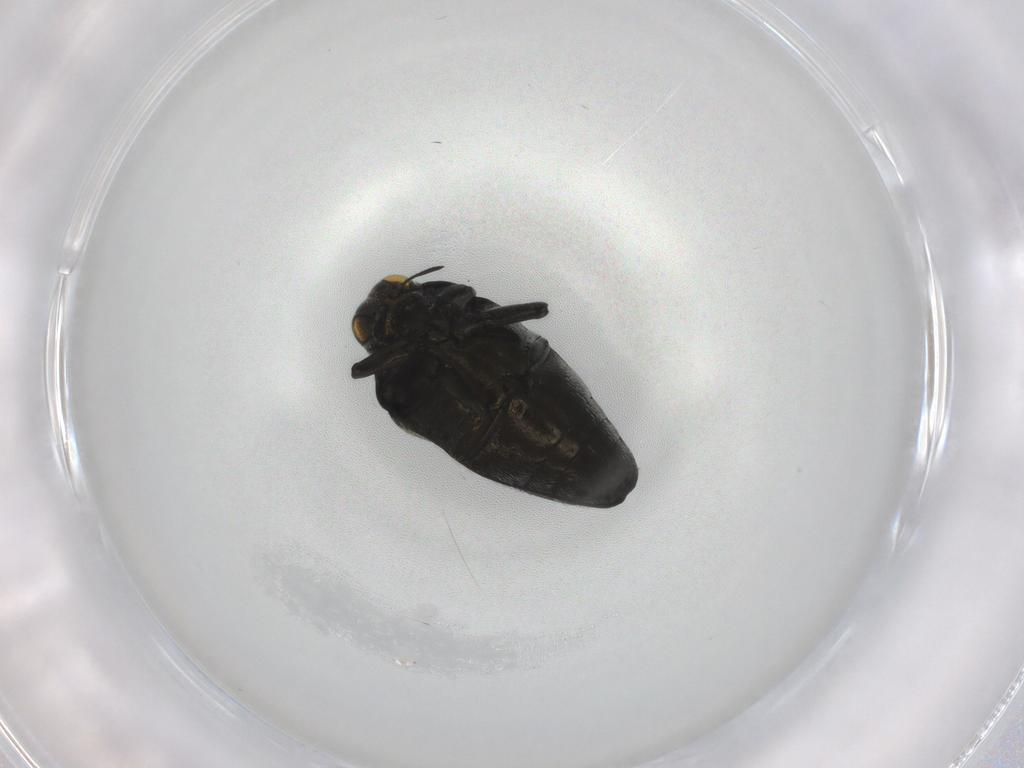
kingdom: Animalia
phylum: Arthropoda
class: Insecta
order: Coleoptera
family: Buprestidae
